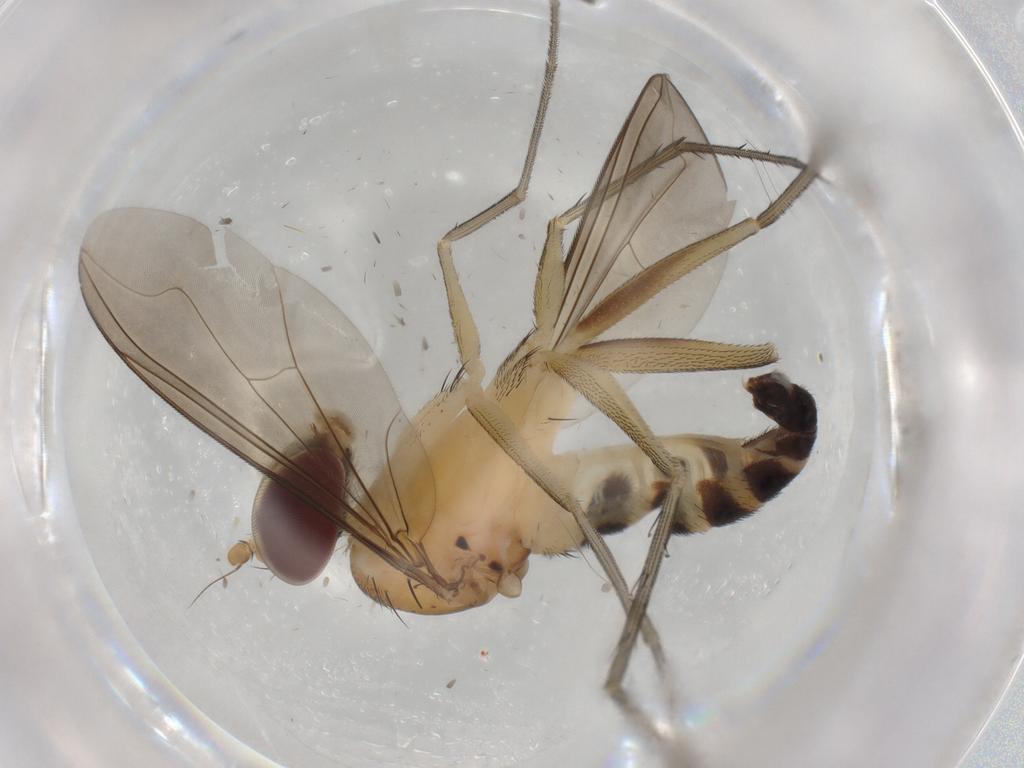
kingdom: Animalia
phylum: Arthropoda
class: Insecta
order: Diptera
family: Dolichopodidae
